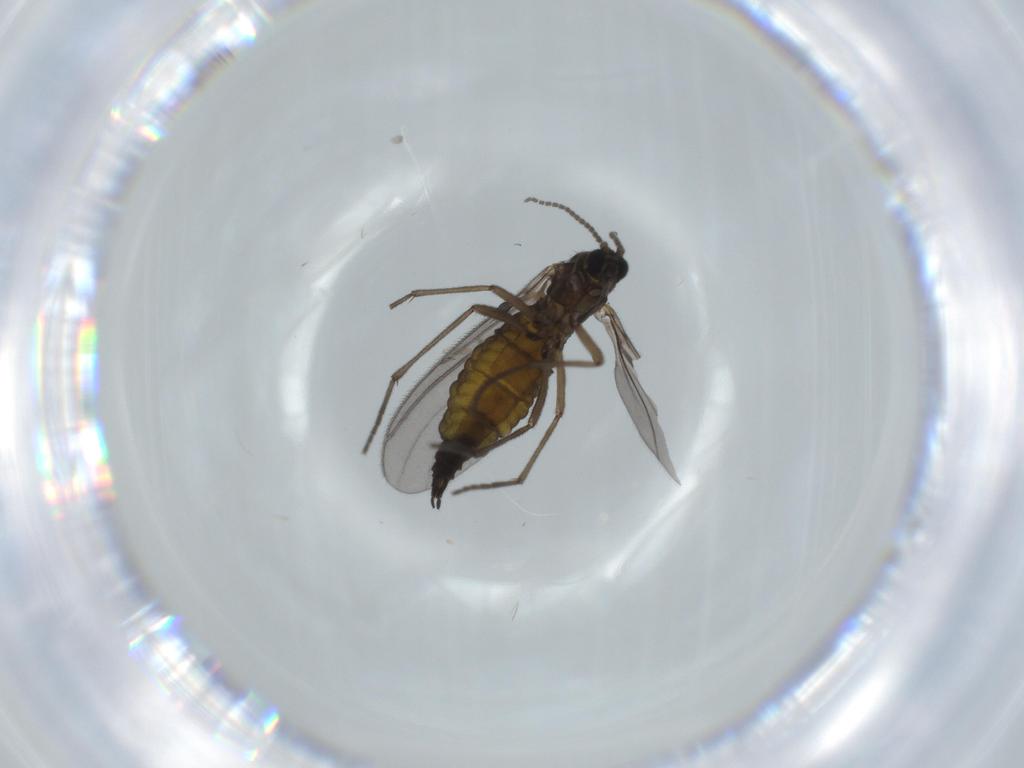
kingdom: Animalia
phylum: Arthropoda
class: Insecta
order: Diptera
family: Sciaridae
